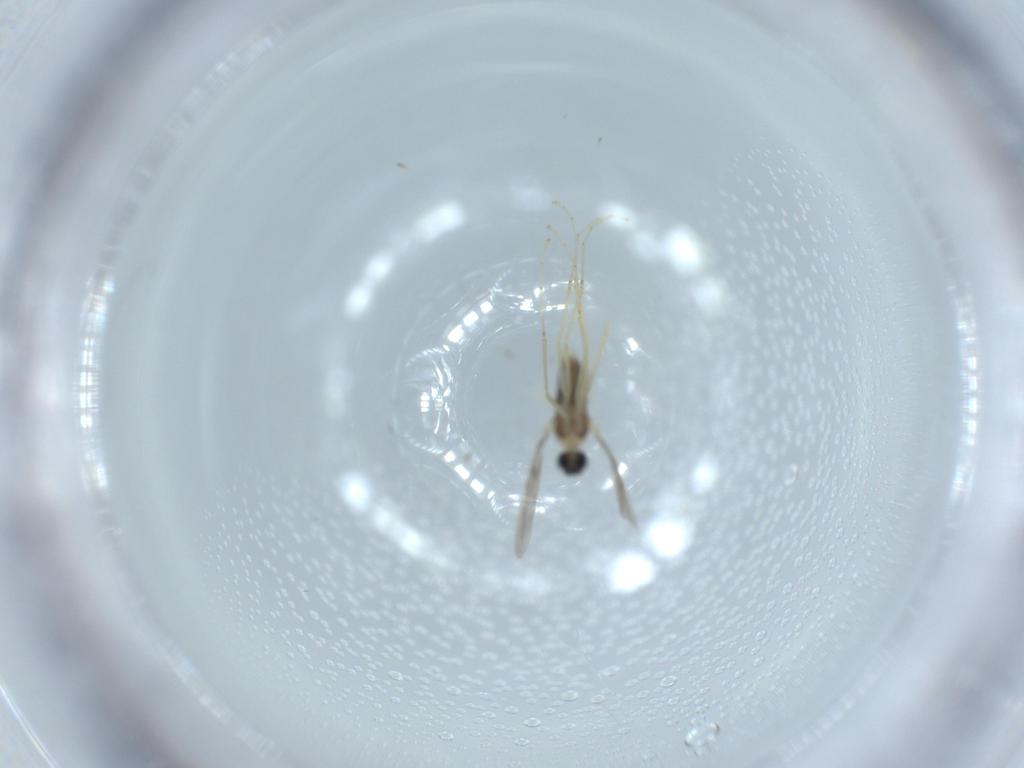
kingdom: Animalia
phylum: Arthropoda
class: Insecta
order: Diptera
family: Cecidomyiidae
